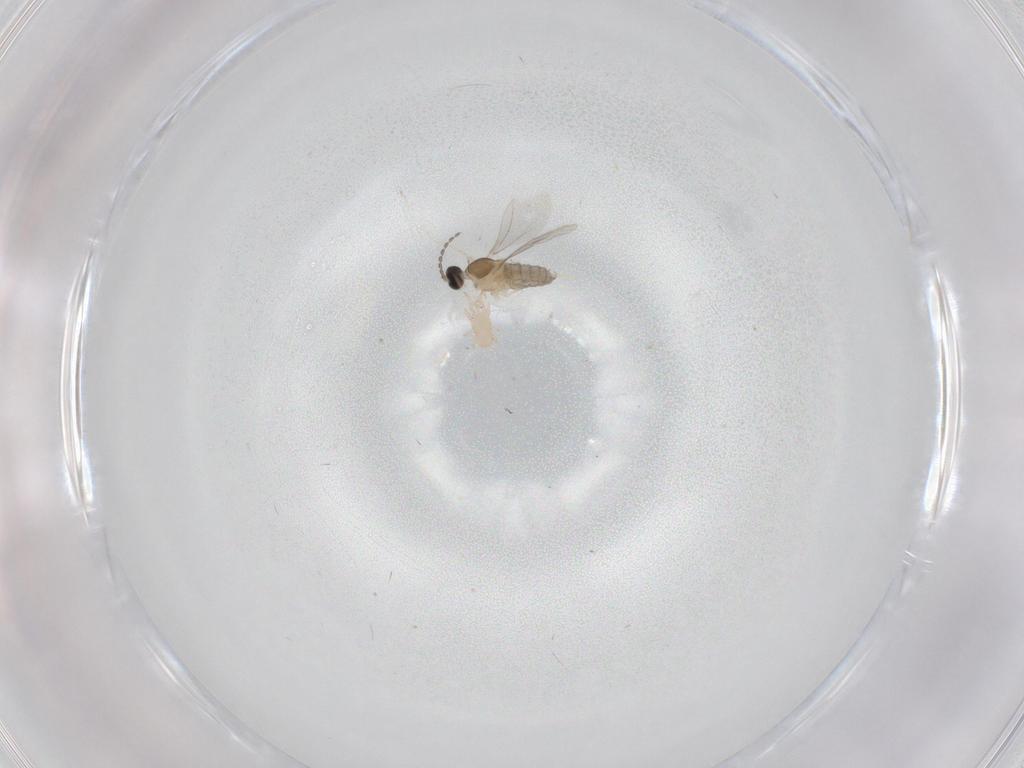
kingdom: Animalia
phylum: Arthropoda
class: Insecta
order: Diptera
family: Cecidomyiidae
